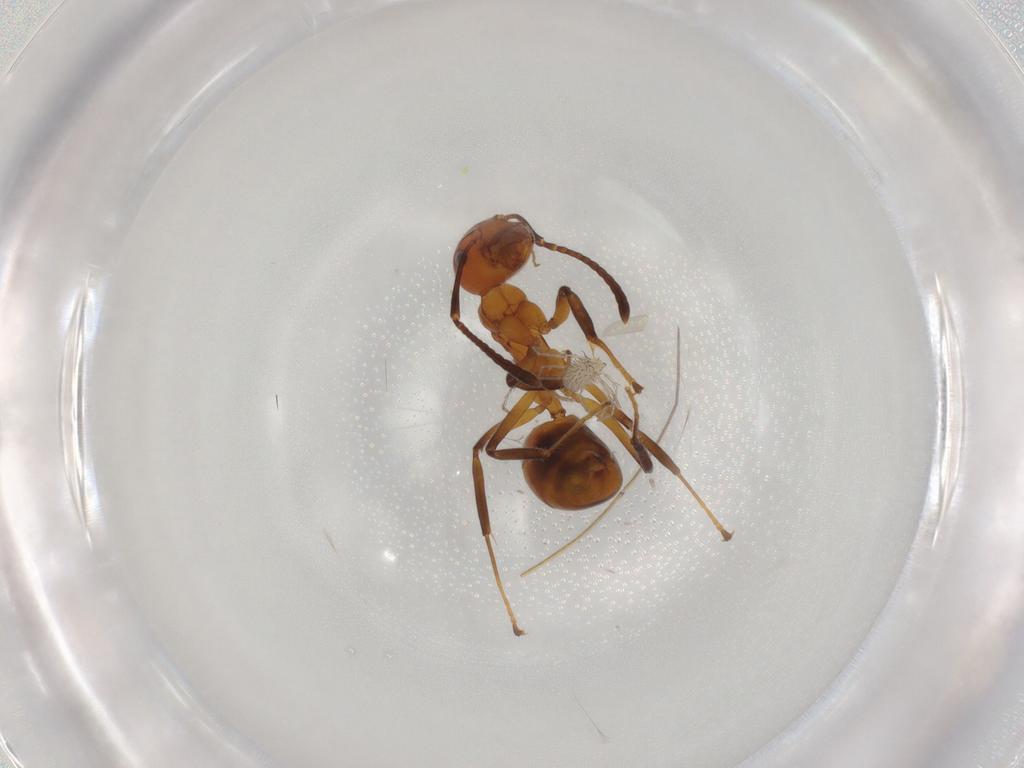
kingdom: Animalia
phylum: Arthropoda
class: Insecta
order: Hymenoptera
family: Formicidae
